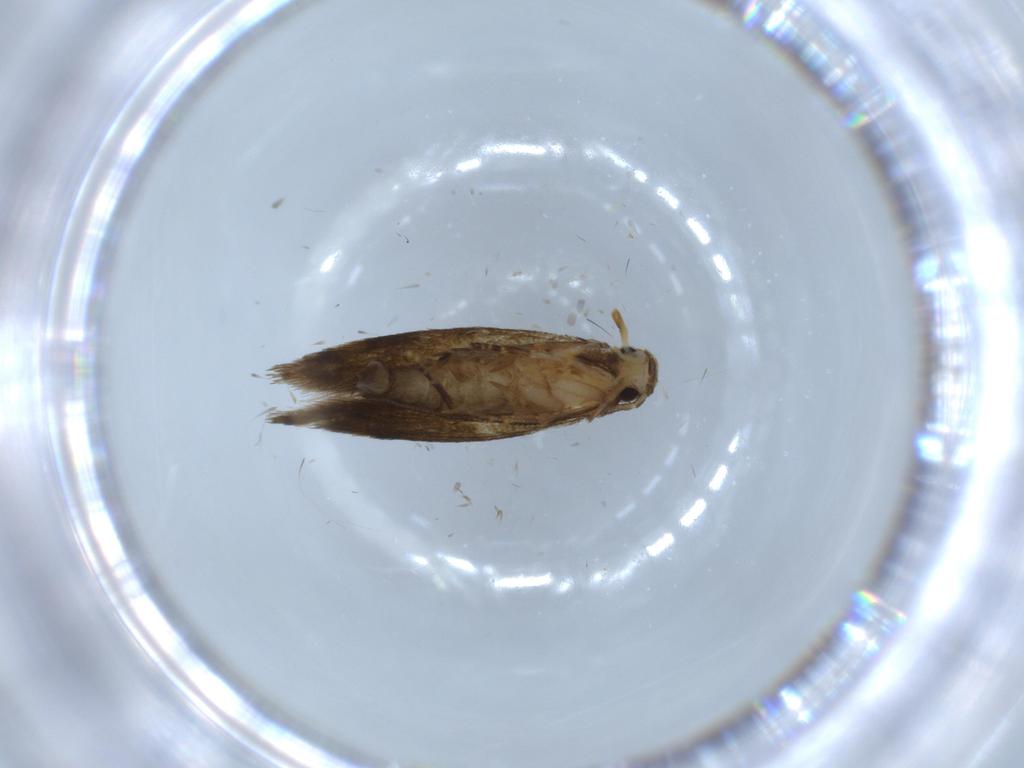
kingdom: Animalia
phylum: Arthropoda
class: Insecta
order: Lepidoptera
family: Tineidae
